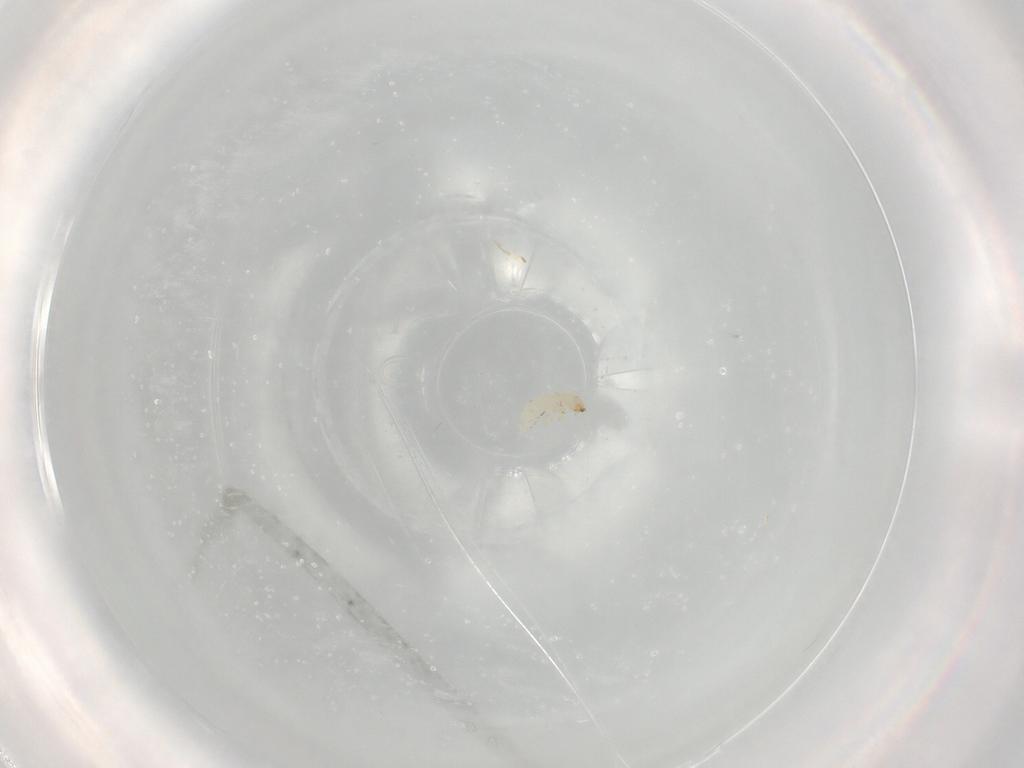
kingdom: Animalia
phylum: Arthropoda
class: Insecta
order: Coleoptera
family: Chrysomelidae
